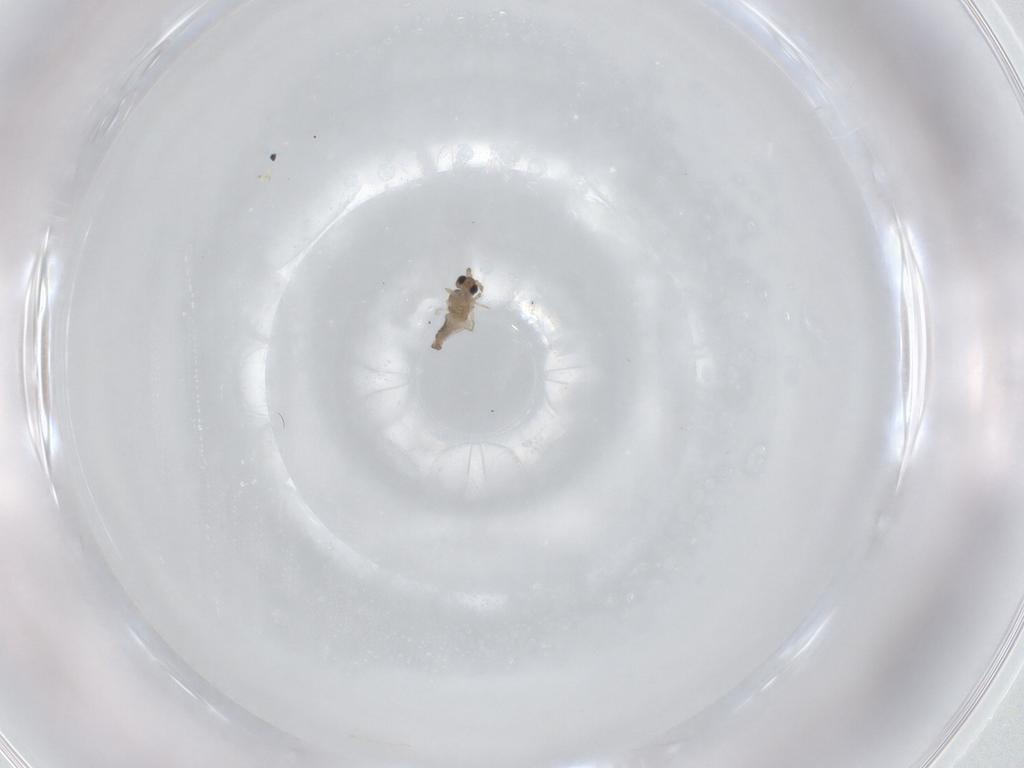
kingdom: Animalia
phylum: Arthropoda
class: Insecta
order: Diptera
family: Cecidomyiidae
